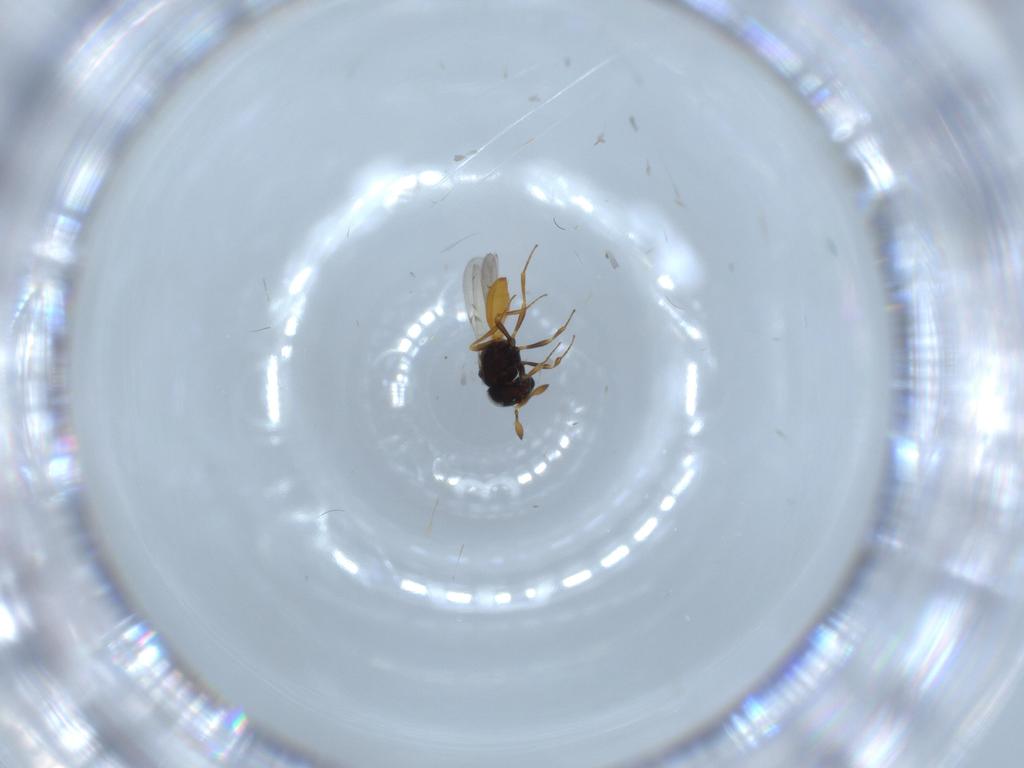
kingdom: Animalia
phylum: Arthropoda
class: Insecta
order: Hymenoptera
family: Scelionidae
